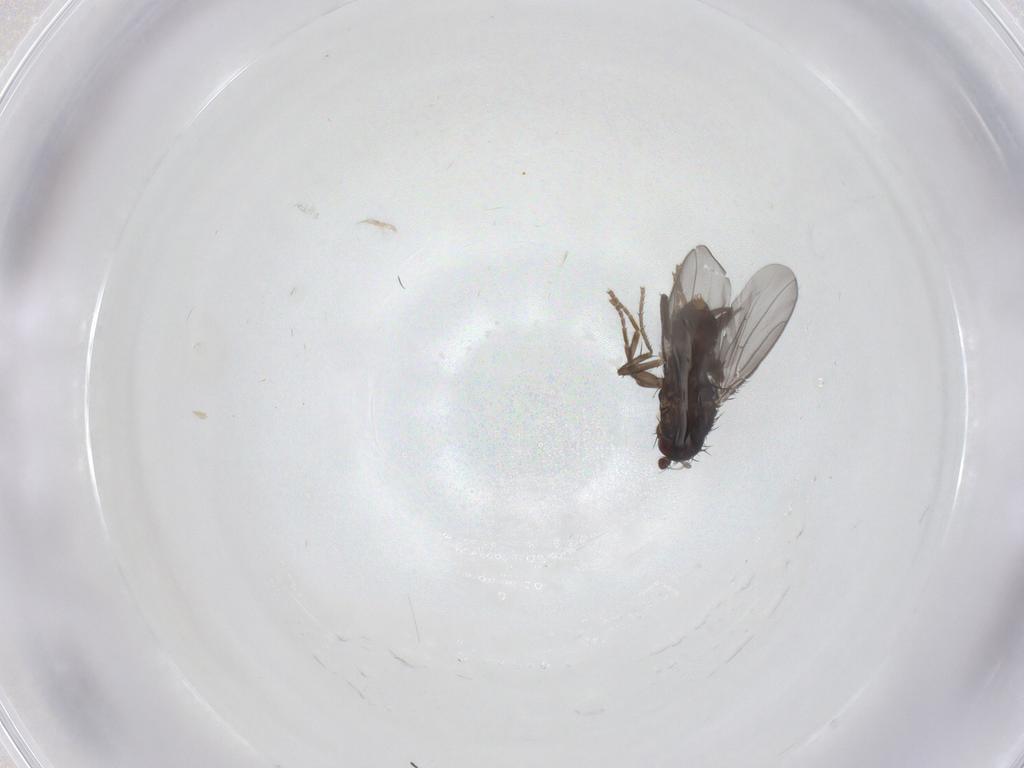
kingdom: Animalia
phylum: Arthropoda
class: Insecta
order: Diptera
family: Sphaeroceridae
